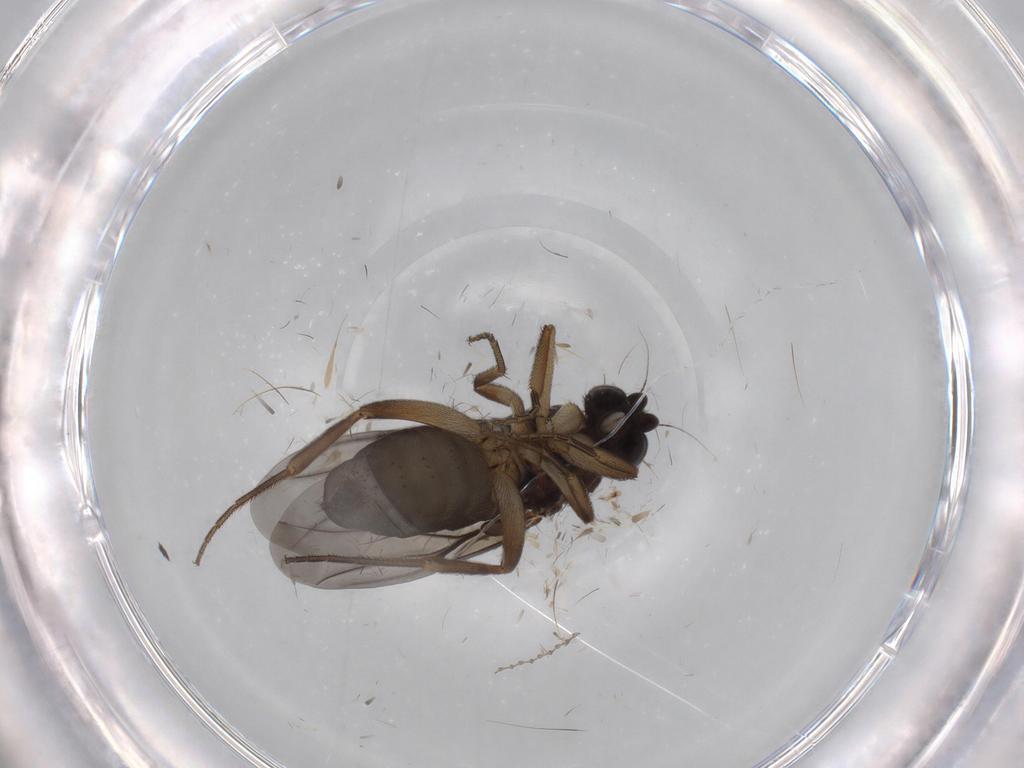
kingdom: Animalia
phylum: Arthropoda
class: Insecta
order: Diptera
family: Phoridae
